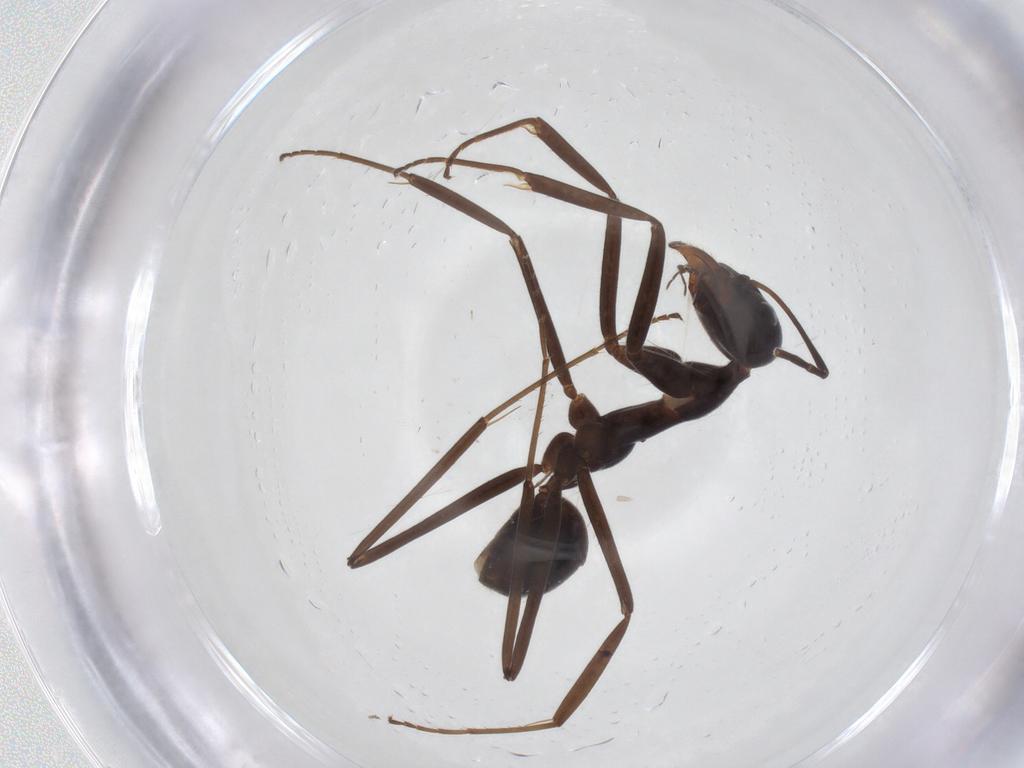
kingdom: Animalia
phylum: Arthropoda
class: Insecta
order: Hymenoptera
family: Formicidae
